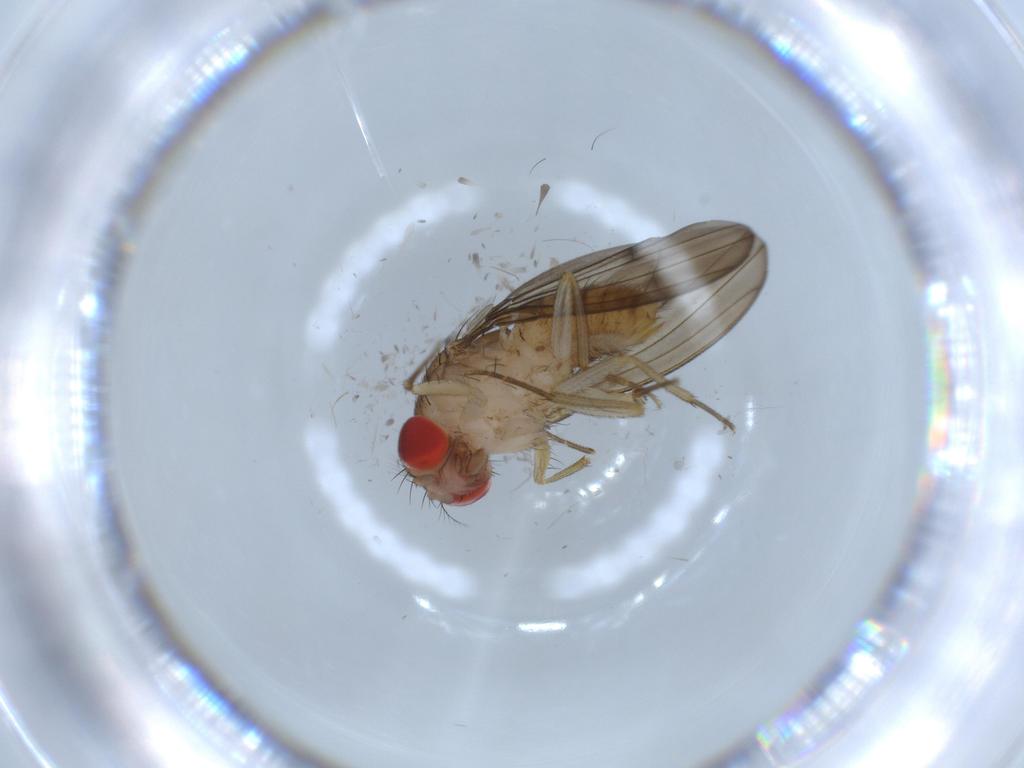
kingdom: Animalia
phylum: Arthropoda
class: Insecta
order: Diptera
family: Drosophilidae
